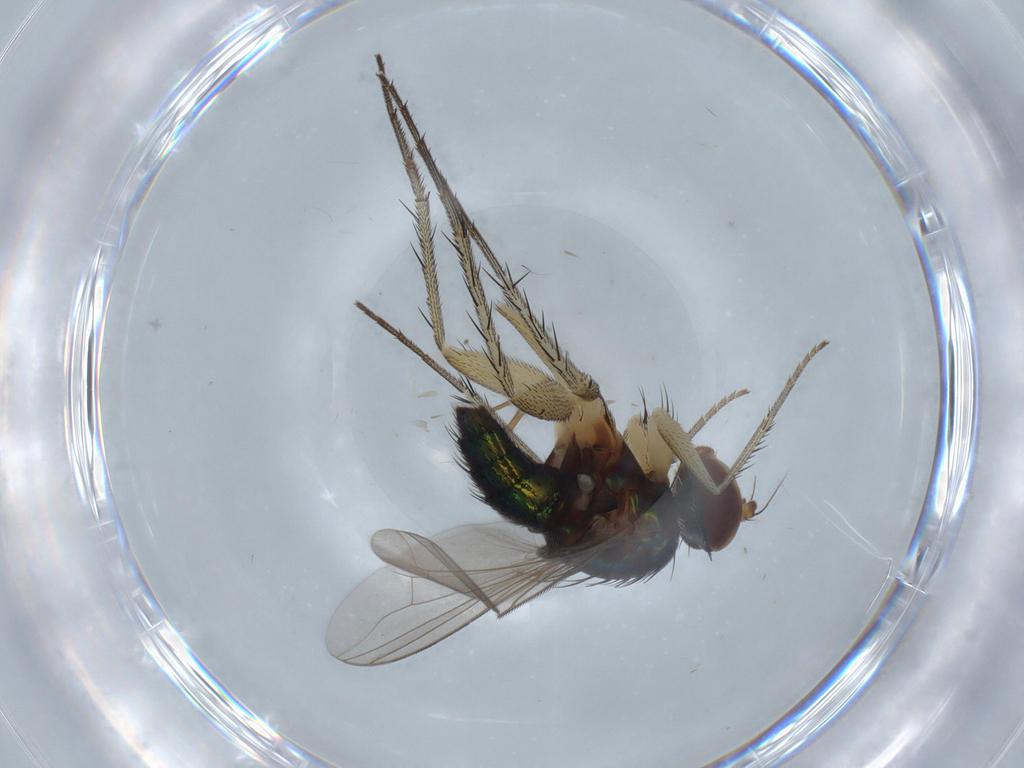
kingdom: Animalia
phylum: Arthropoda
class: Insecta
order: Diptera
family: Dolichopodidae
